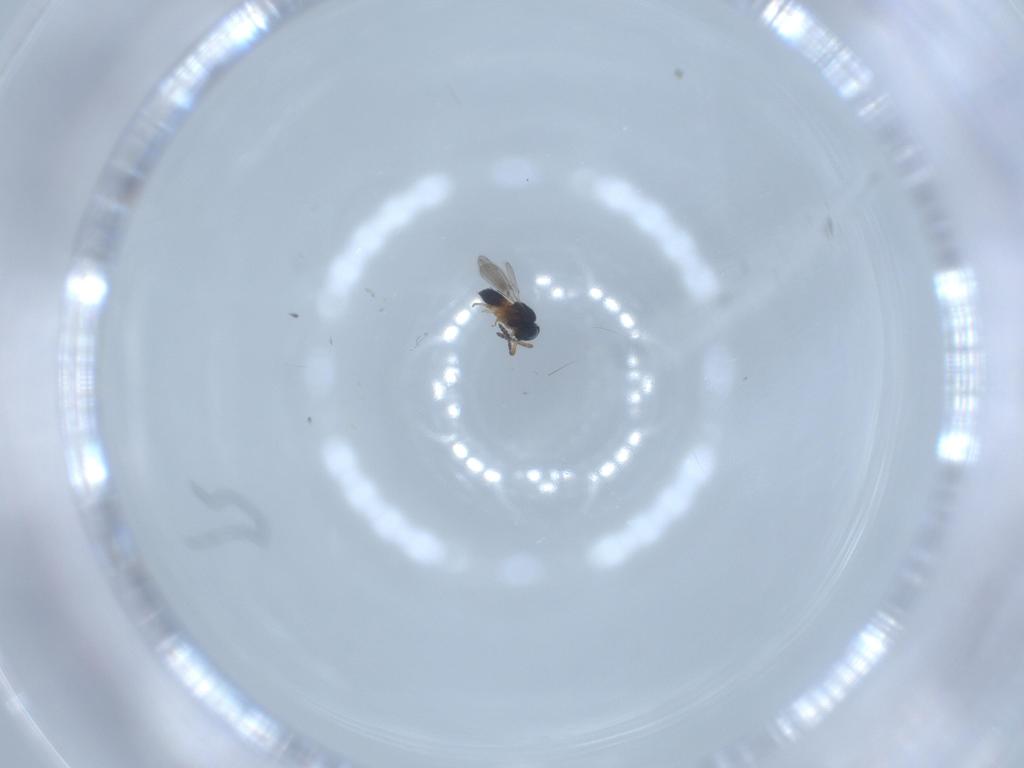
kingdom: Animalia
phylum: Arthropoda
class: Insecta
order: Hymenoptera
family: Scelionidae
